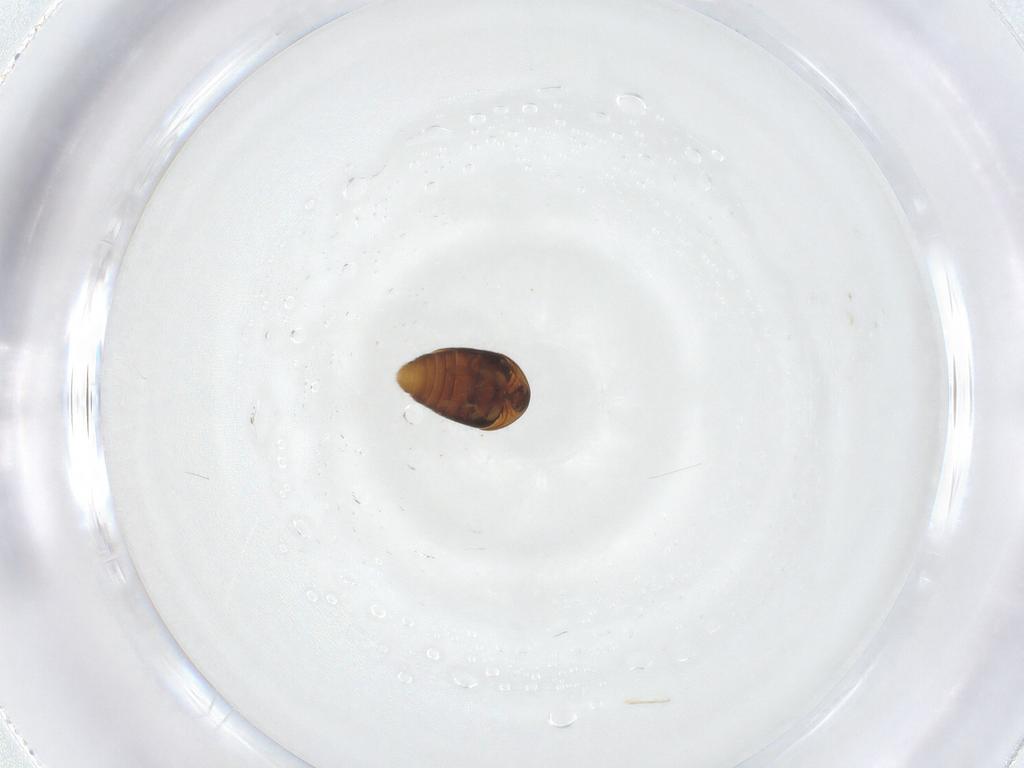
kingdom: Animalia
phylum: Arthropoda
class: Insecta
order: Coleoptera
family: Corylophidae
